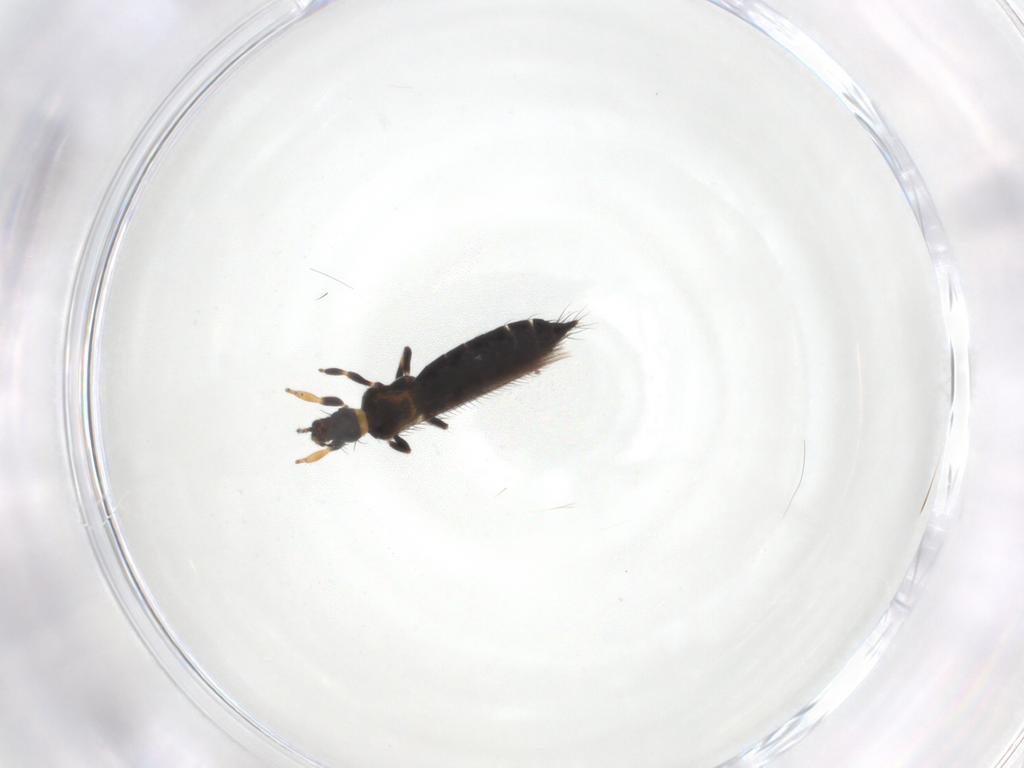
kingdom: Animalia
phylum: Arthropoda
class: Insecta
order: Thysanoptera
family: Thripidae
